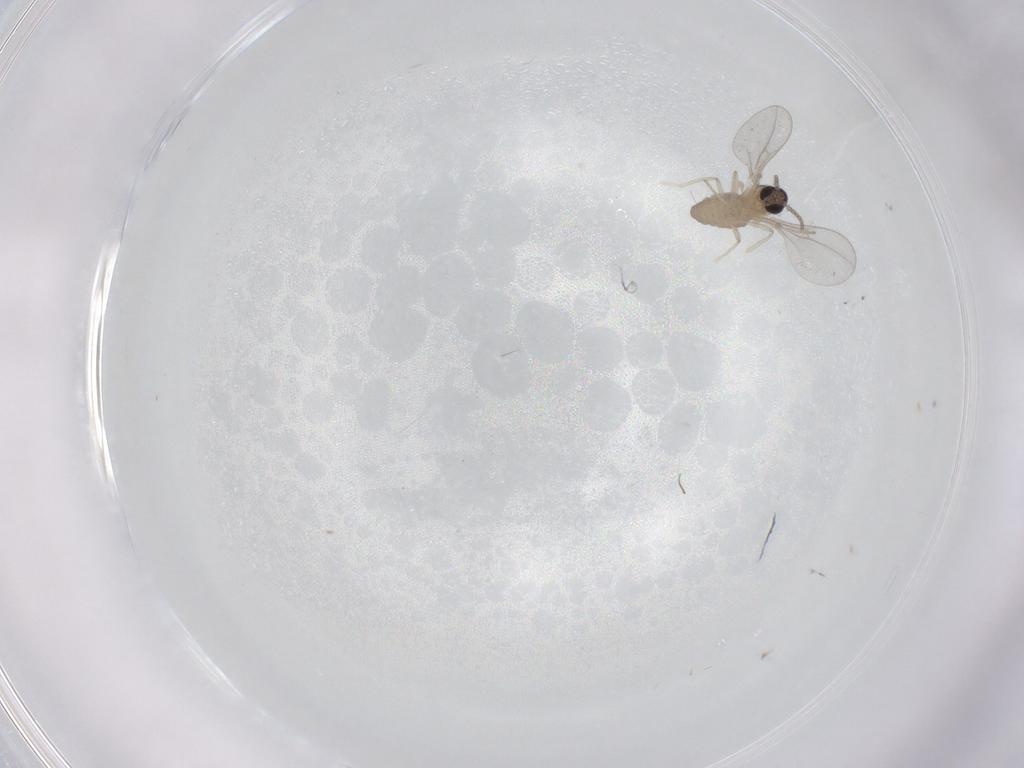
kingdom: Animalia
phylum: Arthropoda
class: Insecta
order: Diptera
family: Cecidomyiidae
